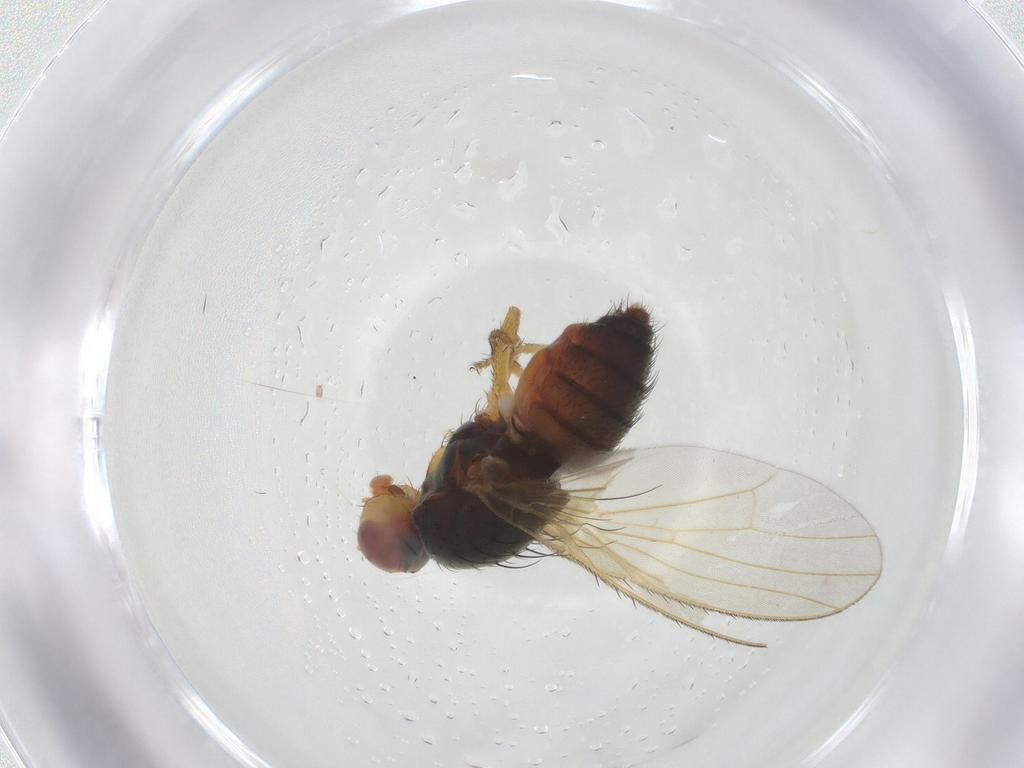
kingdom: Animalia
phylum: Arthropoda
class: Insecta
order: Diptera
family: Heleomyzidae
